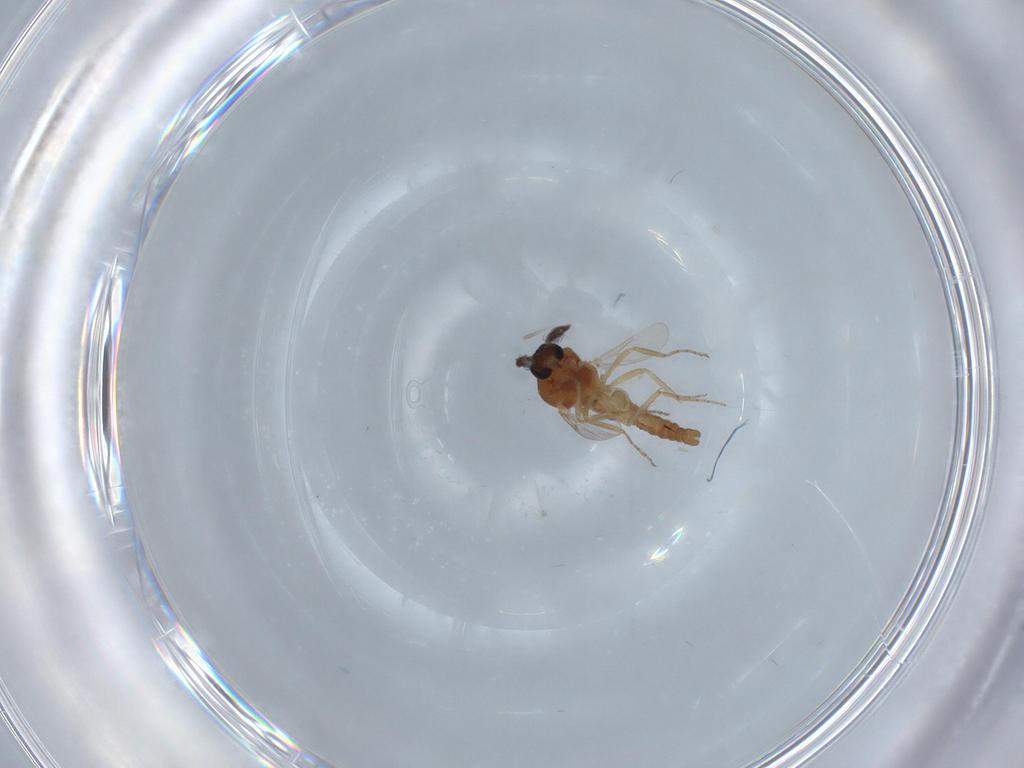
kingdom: Animalia
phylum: Arthropoda
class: Insecta
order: Diptera
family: Ceratopogonidae
